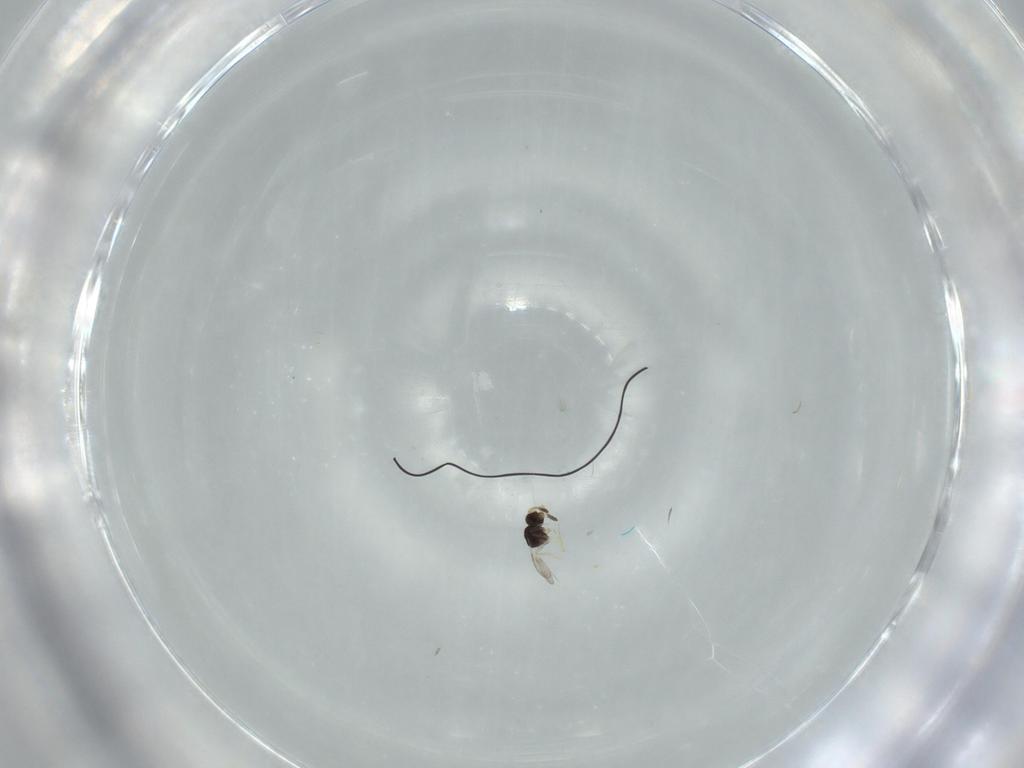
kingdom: Animalia
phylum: Arthropoda
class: Insecta
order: Hymenoptera
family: Ceraphronidae
